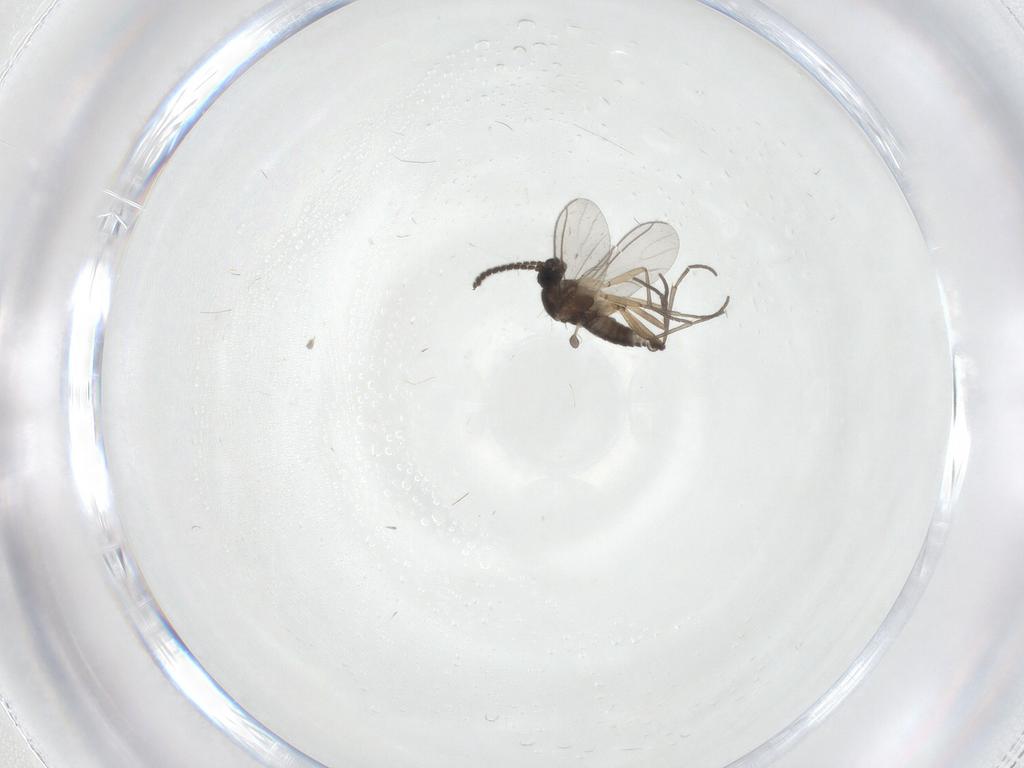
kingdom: Animalia
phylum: Arthropoda
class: Insecta
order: Diptera
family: Sciaridae
